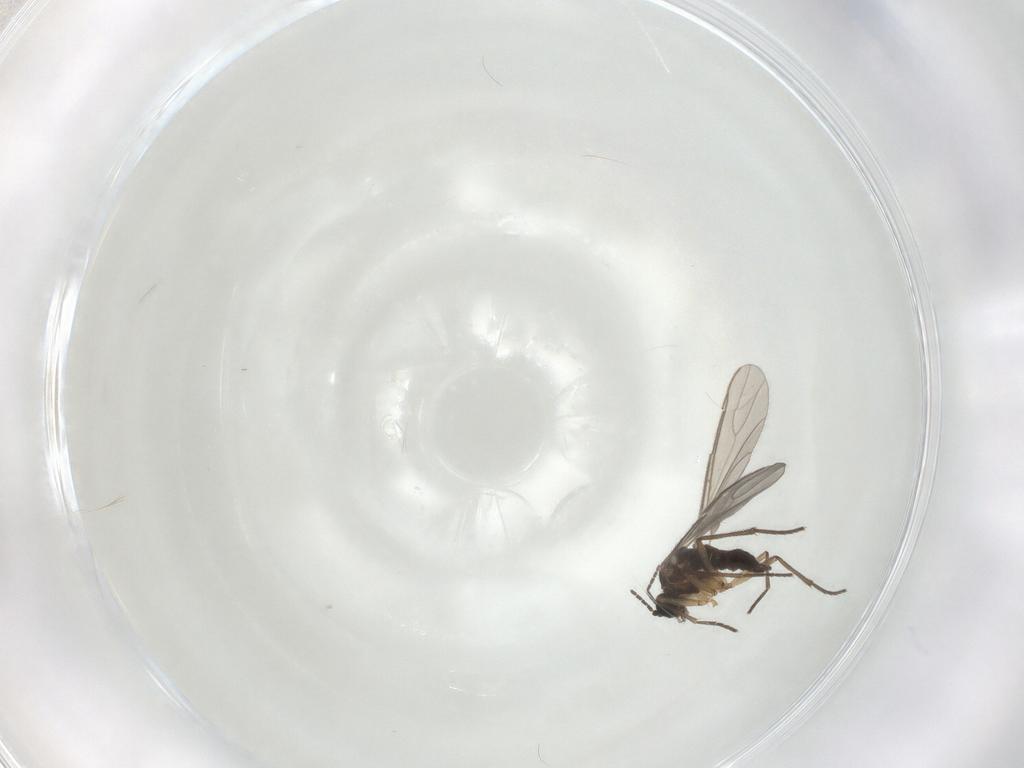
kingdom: Animalia
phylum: Arthropoda
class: Insecta
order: Diptera
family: Sciaridae
